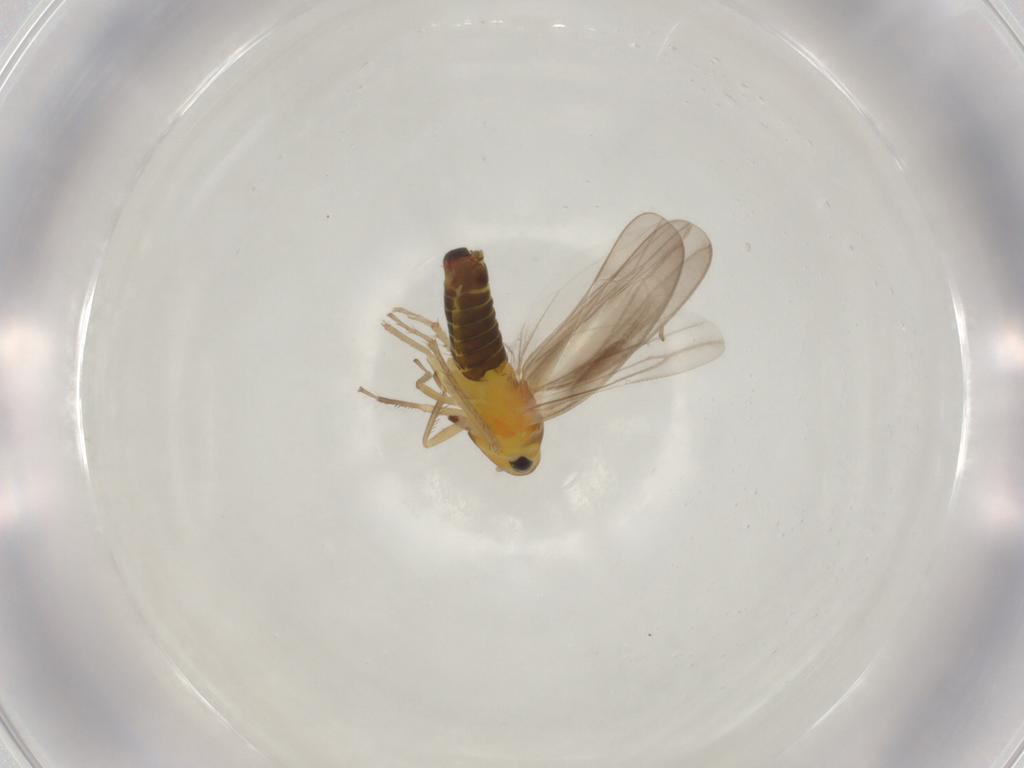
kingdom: Animalia
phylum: Arthropoda
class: Insecta
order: Hemiptera
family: Cicadellidae
